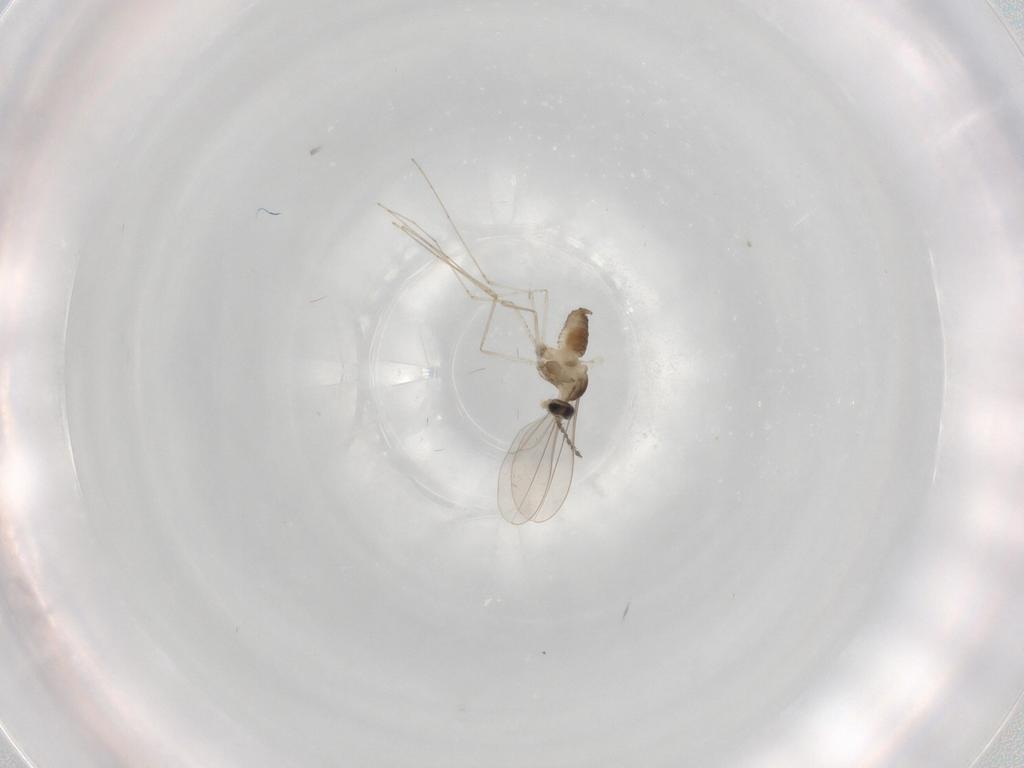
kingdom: Animalia
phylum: Arthropoda
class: Insecta
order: Diptera
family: Cecidomyiidae
